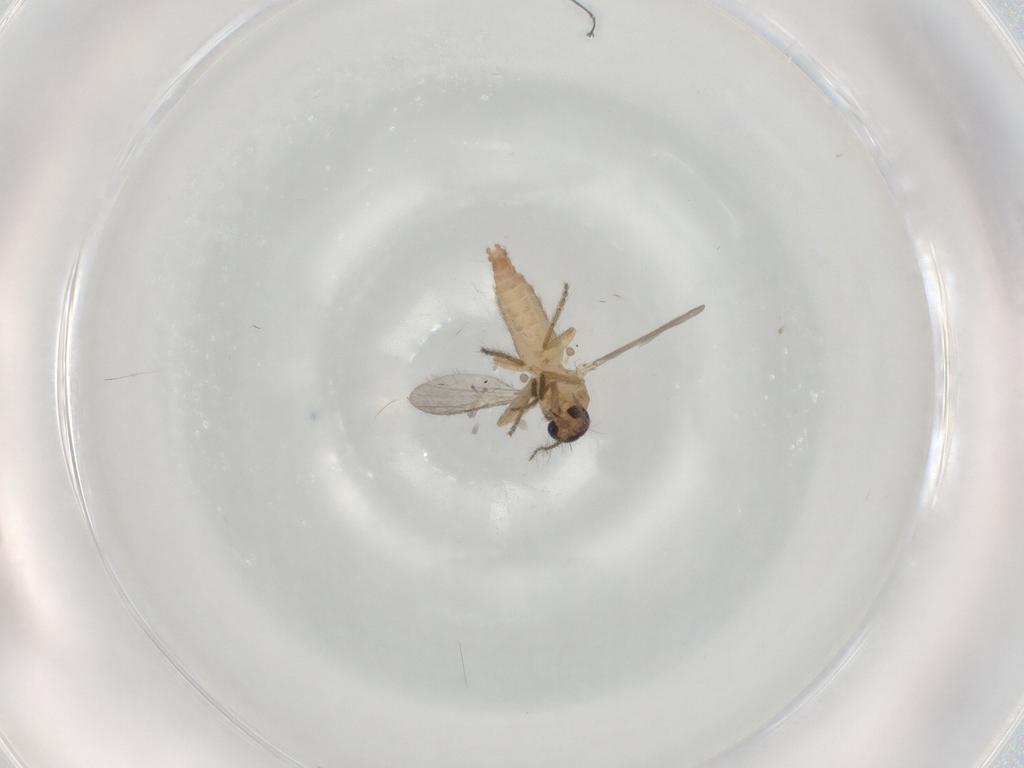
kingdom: Animalia
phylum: Arthropoda
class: Insecta
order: Diptera
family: Ceratopogonidae
